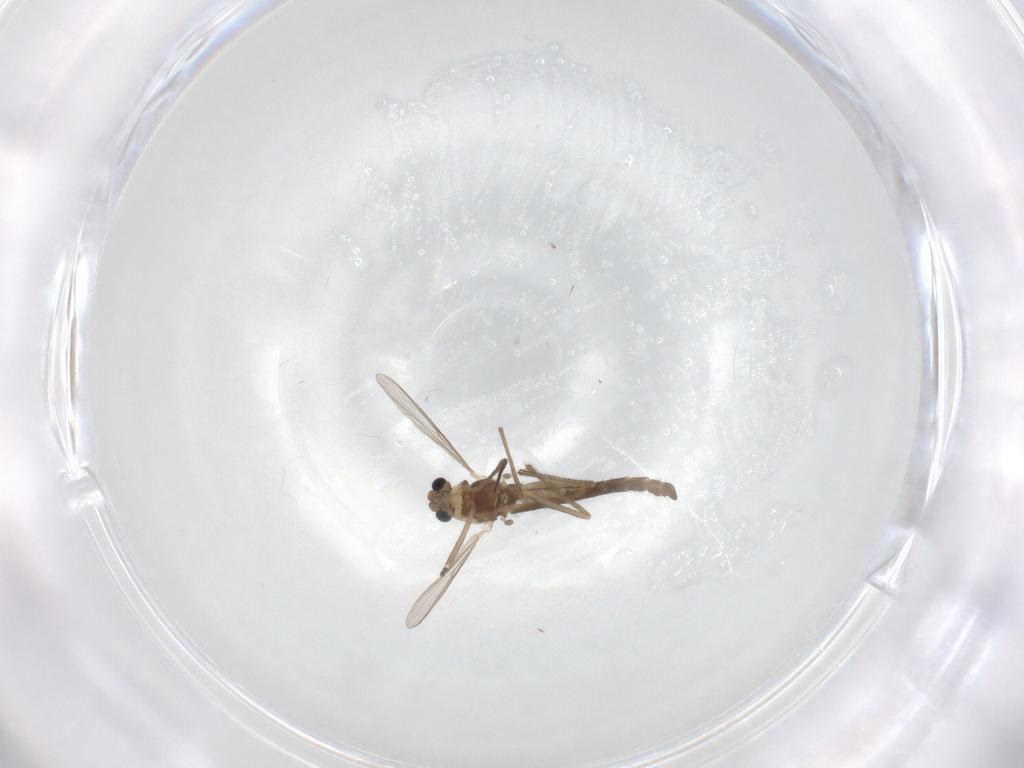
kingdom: Animalia
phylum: Arthropoda
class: Insecta
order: Diptera
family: Chironomidae
